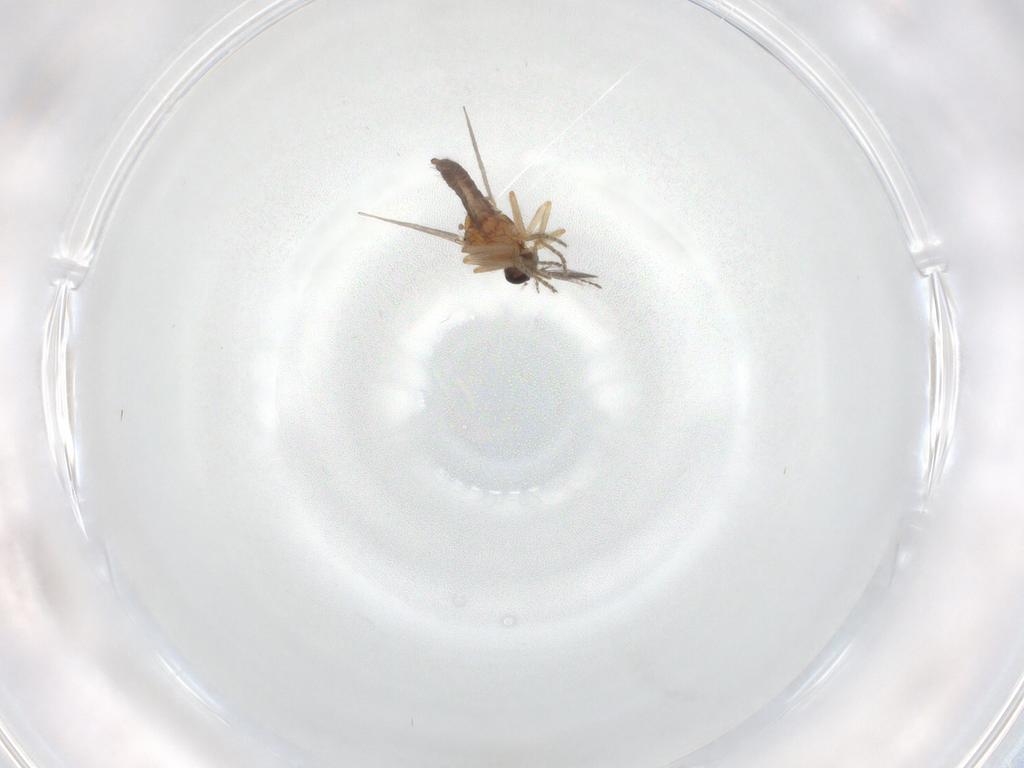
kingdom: Animalia
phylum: Arthropoda
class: Insecta
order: Diptera
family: Ceratopogonidae
